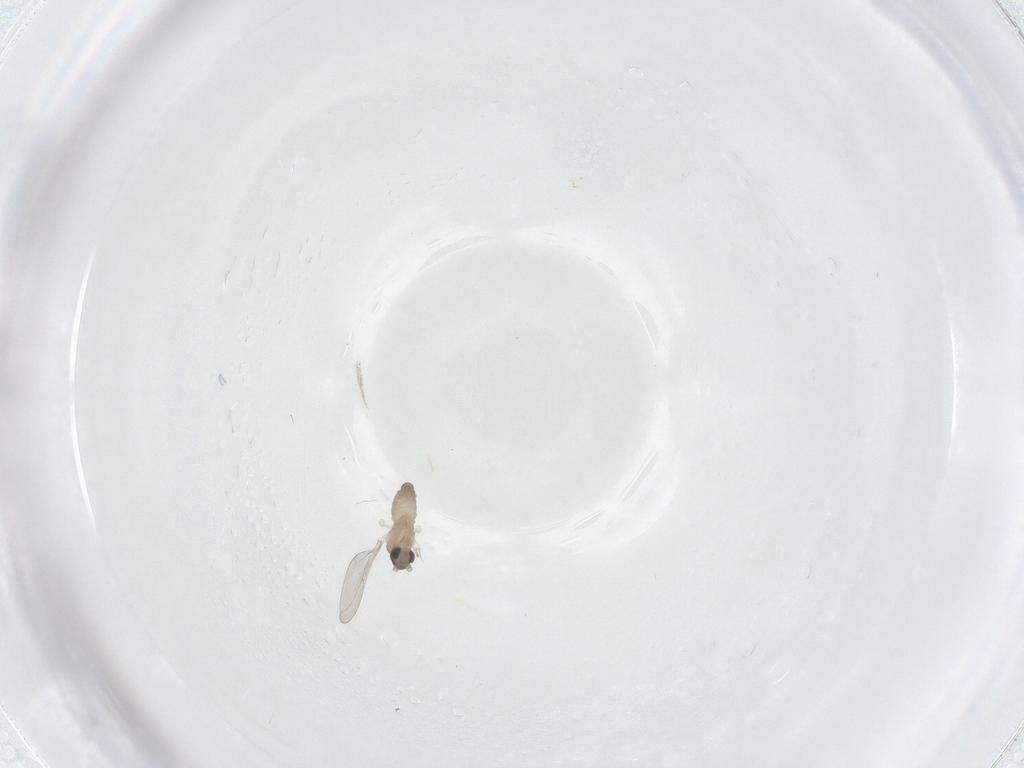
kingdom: Animalia
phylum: Arthropoda
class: Insecta
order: Diptera
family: Cecidomyiidae
